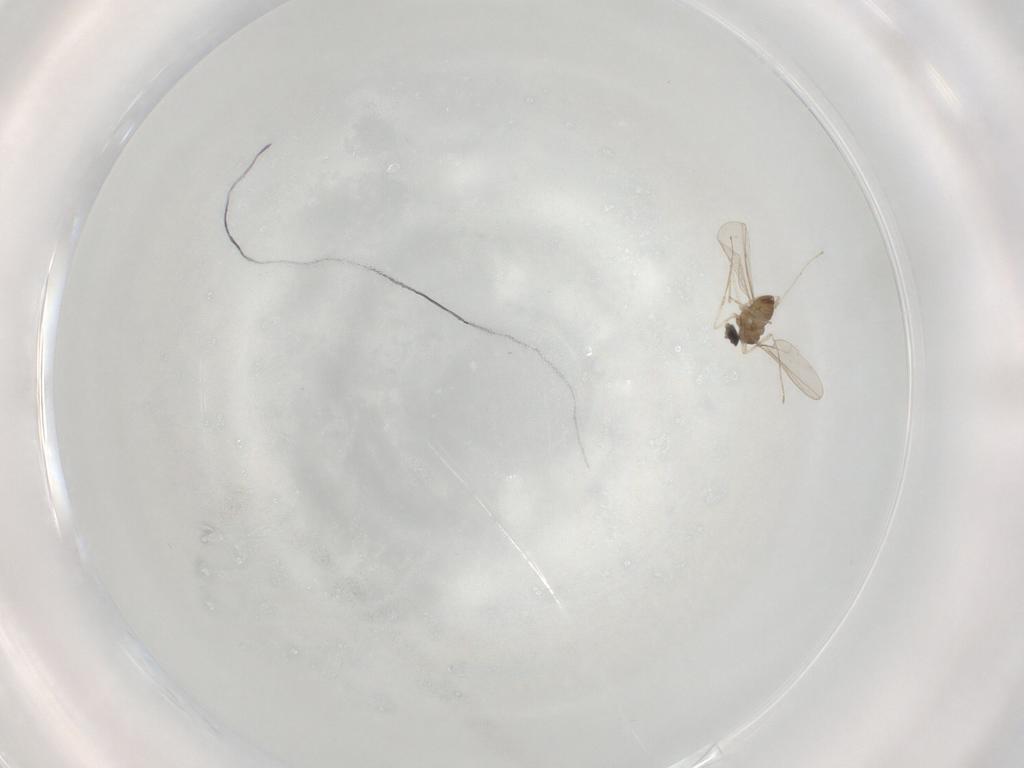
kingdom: Animalia
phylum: Arthropoda
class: Insecta
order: Diptera
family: Cecidomyiidae
